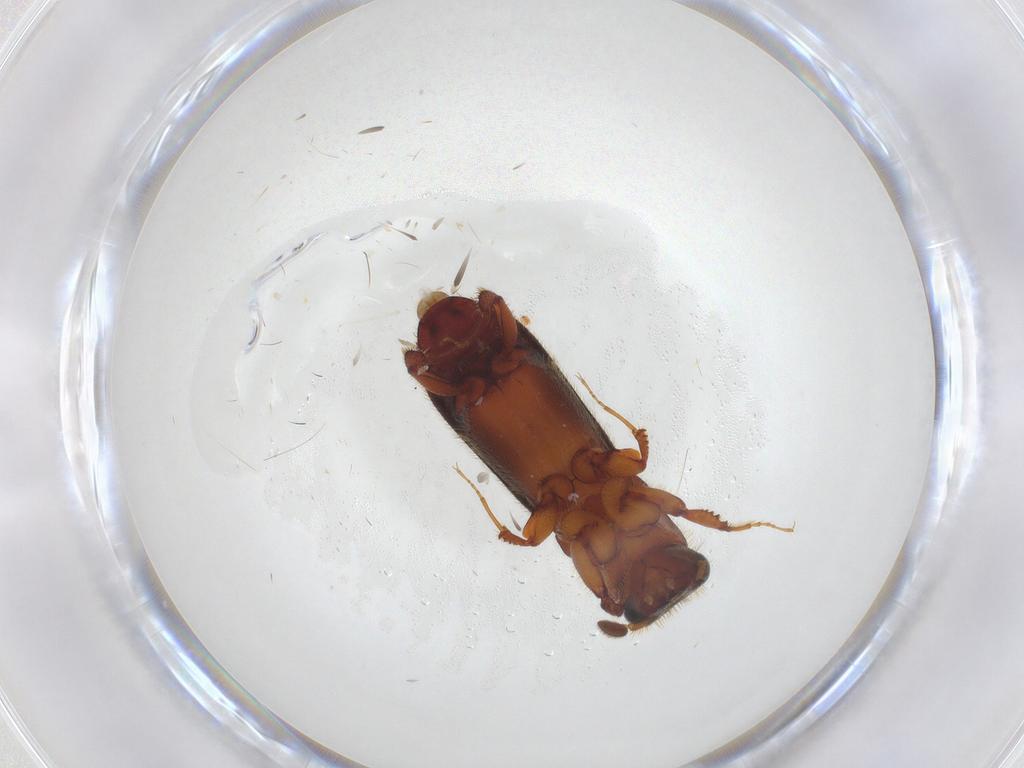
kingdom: Animalia
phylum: Arthropoda
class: Insecta
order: Coleoptera
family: Curculionidae
